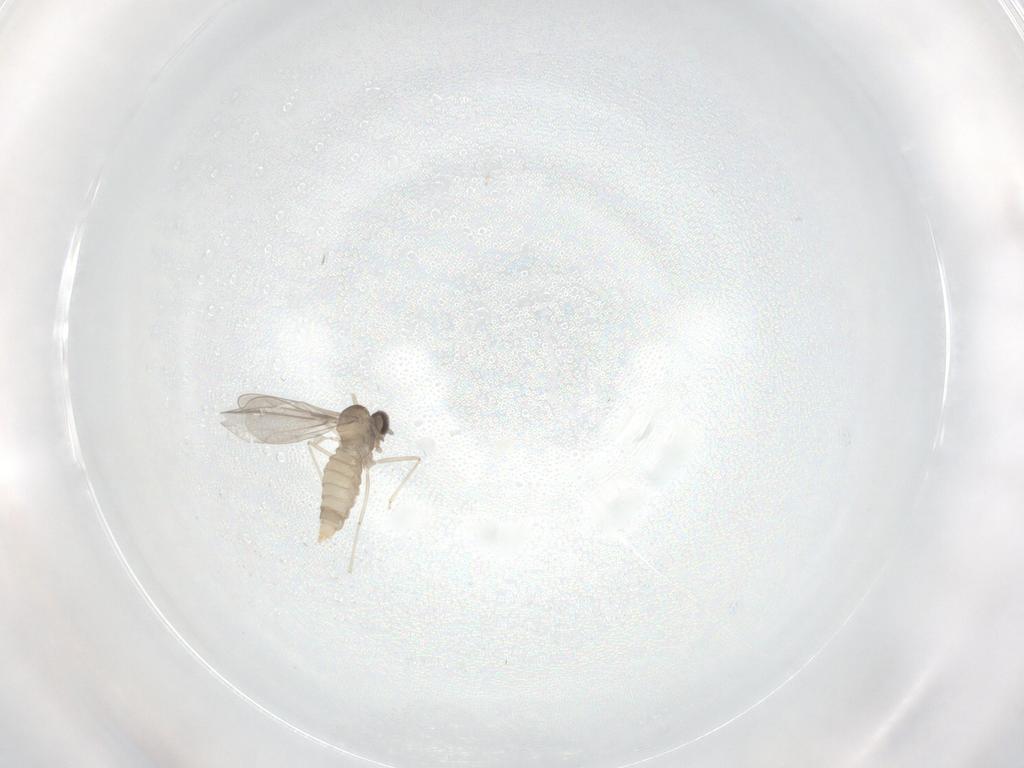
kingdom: Animalia
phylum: Arthropoda
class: Insecta
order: Diptera
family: Cecidomyiidae
